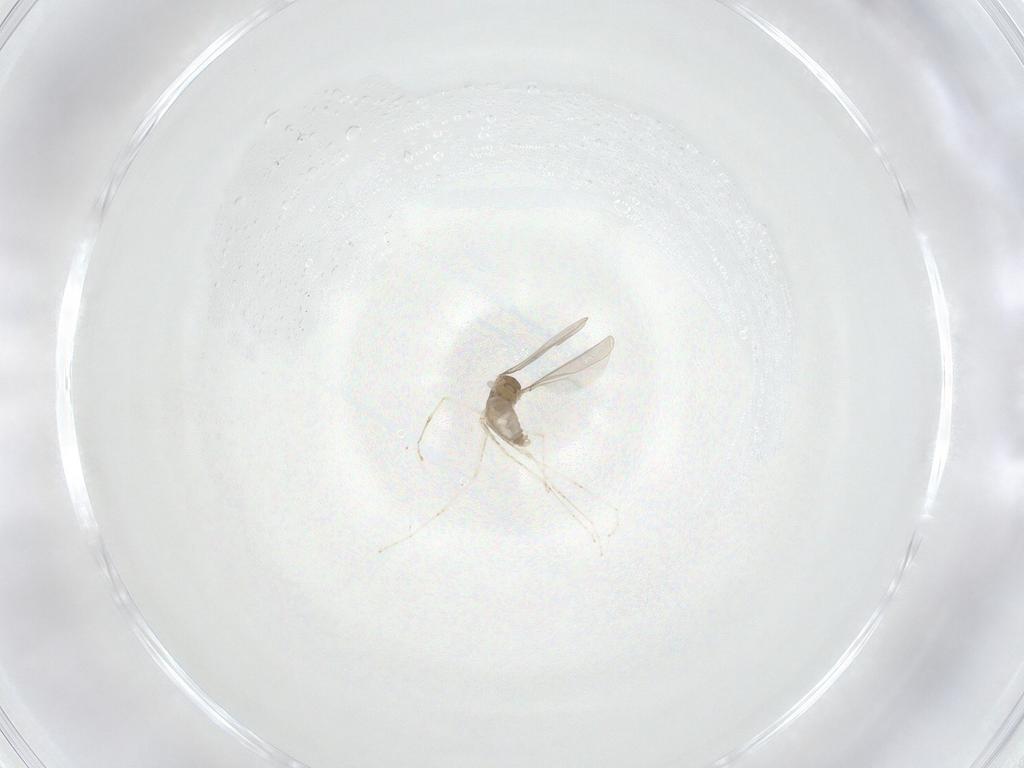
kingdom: Animalia
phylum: Arthropoda
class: Insecta
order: Diptera
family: Cecidomyiidae
